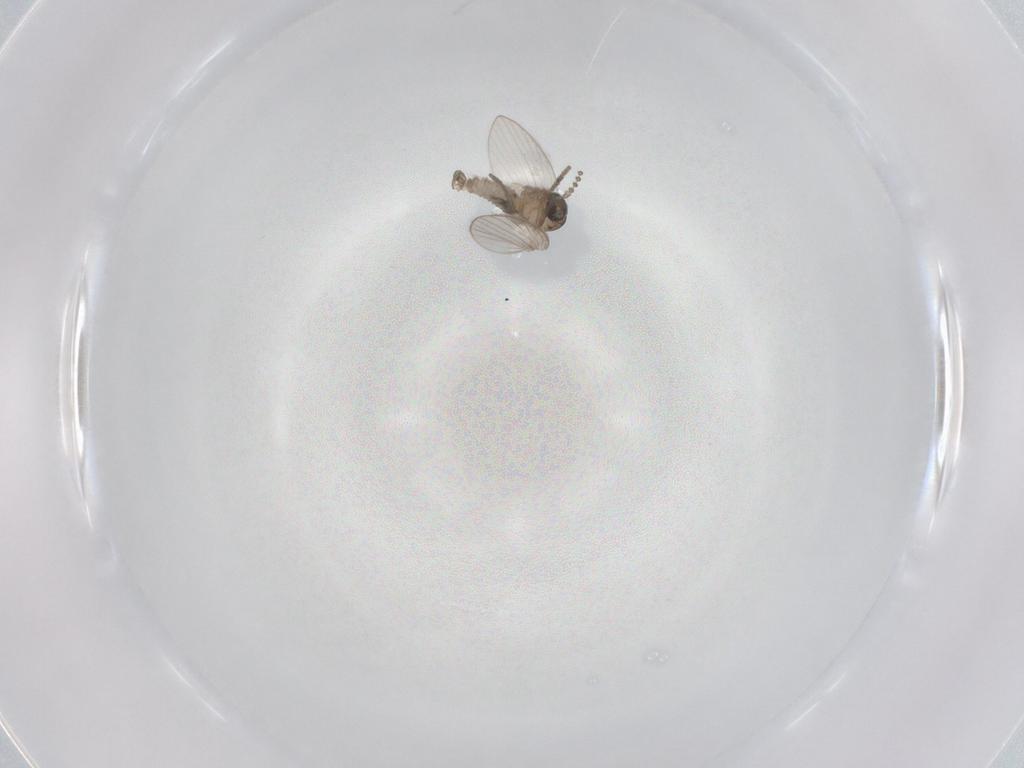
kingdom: Animalia
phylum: Arthropoda
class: Insecta
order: Diptera
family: Psychodidae
